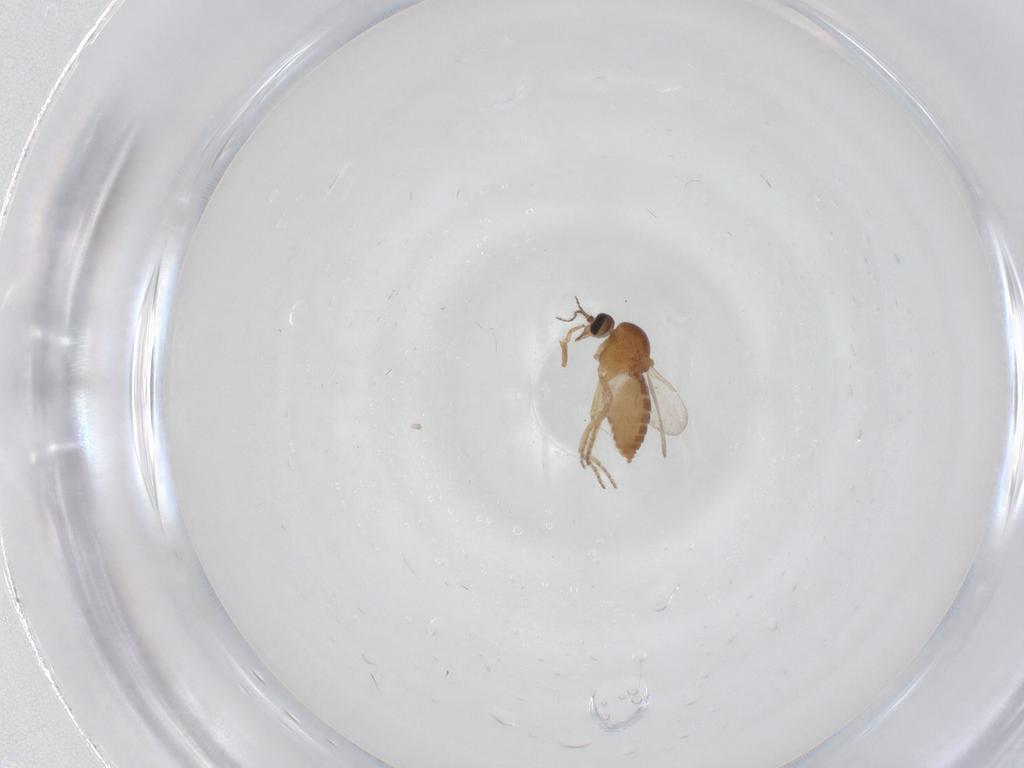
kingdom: Animalia
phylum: Arthropoda
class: Insecta
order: Diptera
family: Ceratopogonidae
